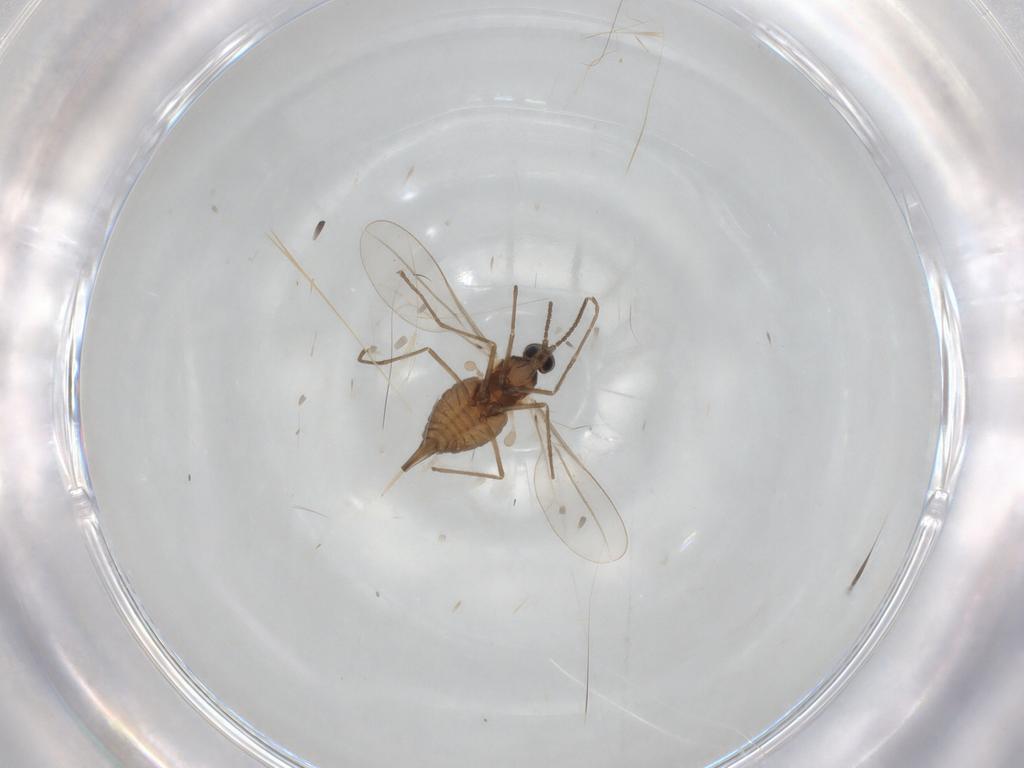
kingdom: Animalia
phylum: Arthropoda
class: Insecta
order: Diptera
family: Cecidomyiidae
